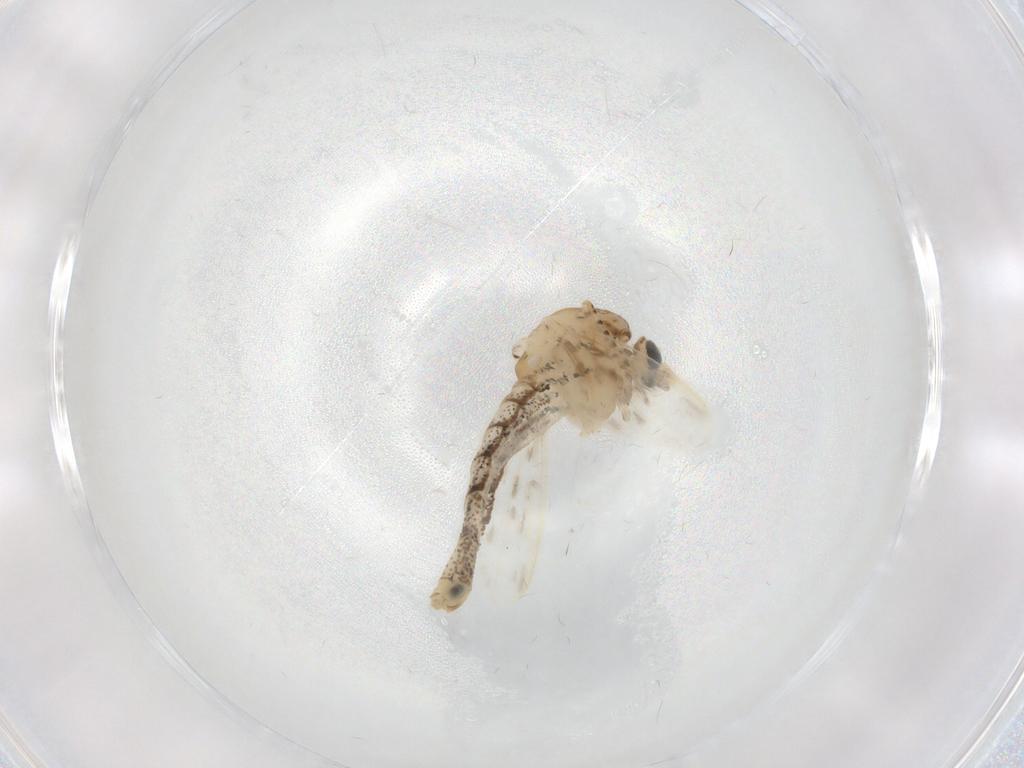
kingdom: Animalia
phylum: Arthropoda
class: Insecta
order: Diptera
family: Chaoboridae
